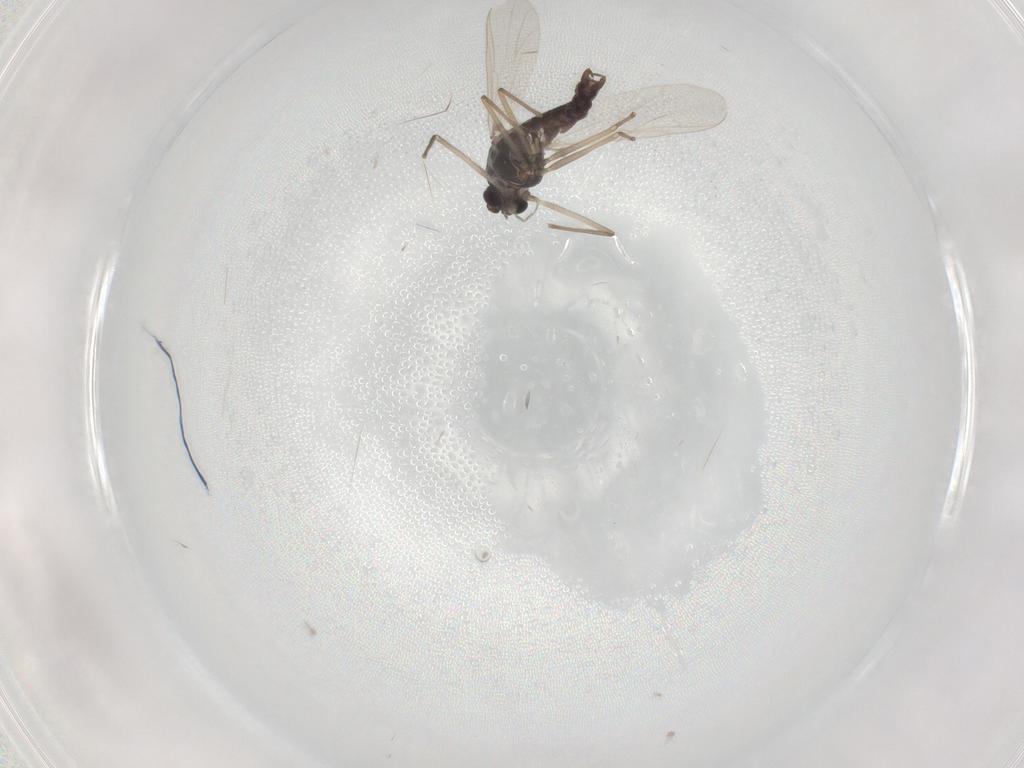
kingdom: Animalia
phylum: Arthropoda
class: Insecta
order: Diptera
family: Chironomidae
